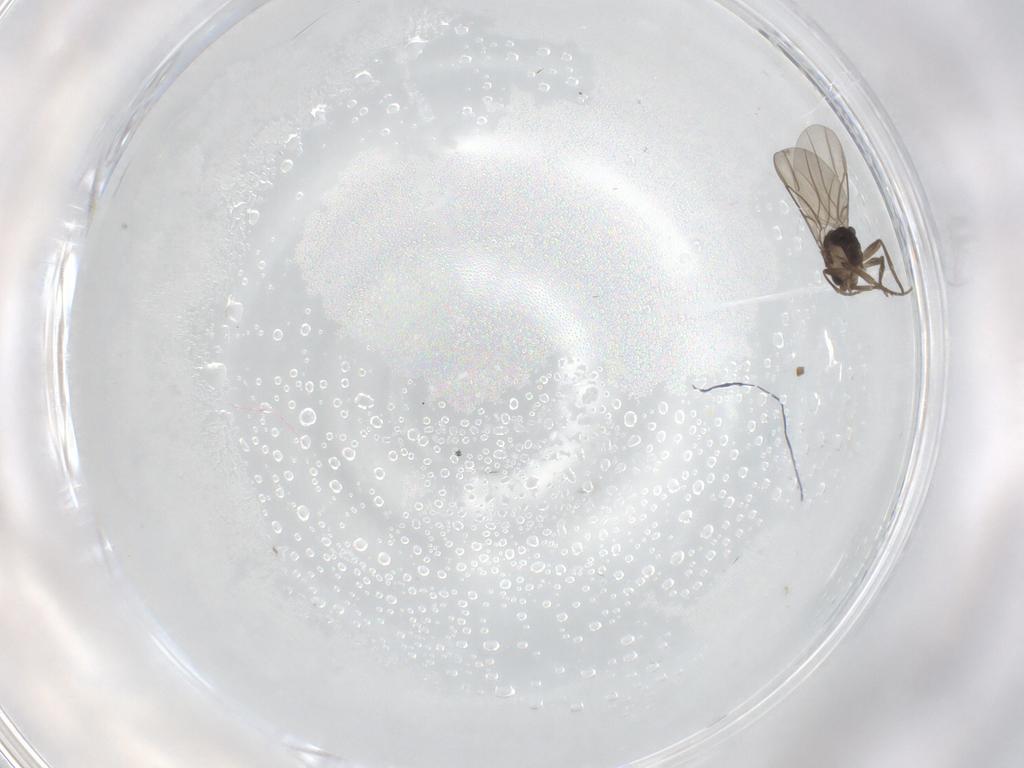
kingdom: Animalia
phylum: Arthropoda
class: Insecta
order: Diptera
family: Phoridae
